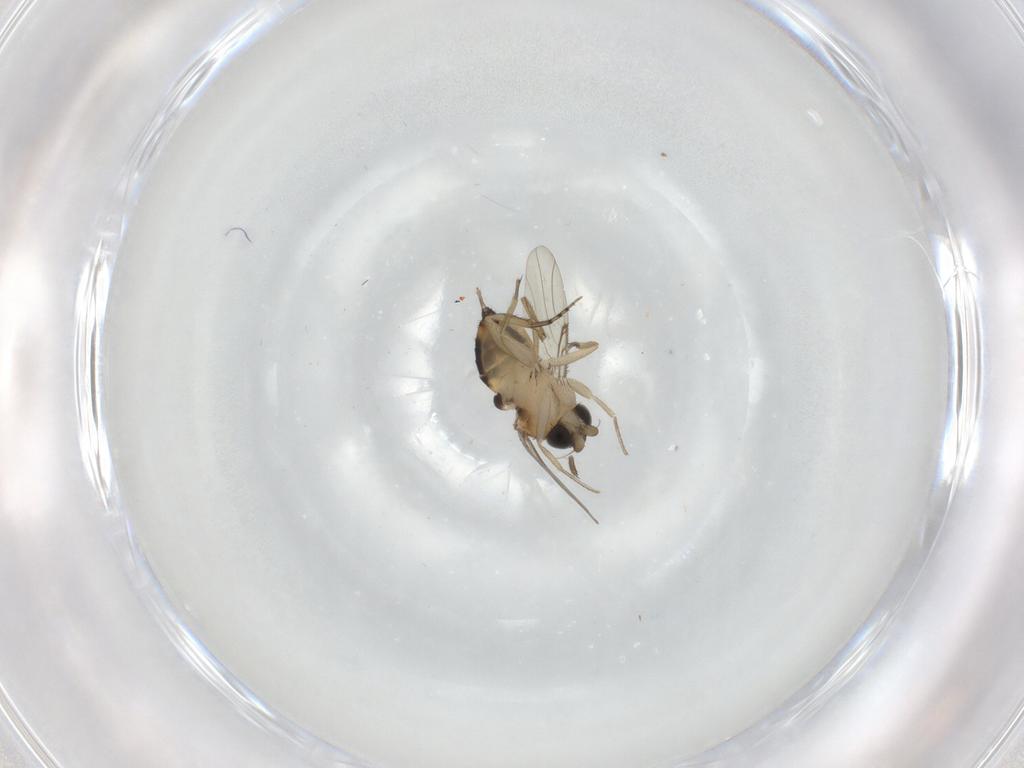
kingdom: Animalia
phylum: Arthropoda
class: Insecta
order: Diptera
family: Phoridae
